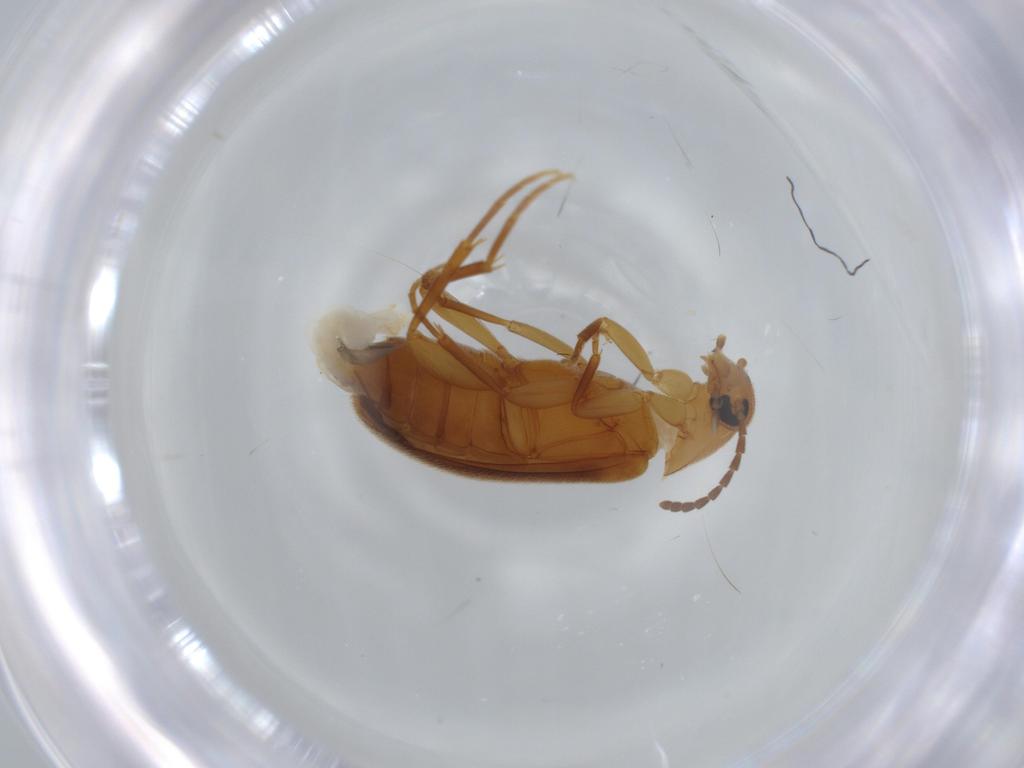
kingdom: Animalia
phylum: Arthropoda
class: Insecta
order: Coleoptera
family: Scraptiidae
